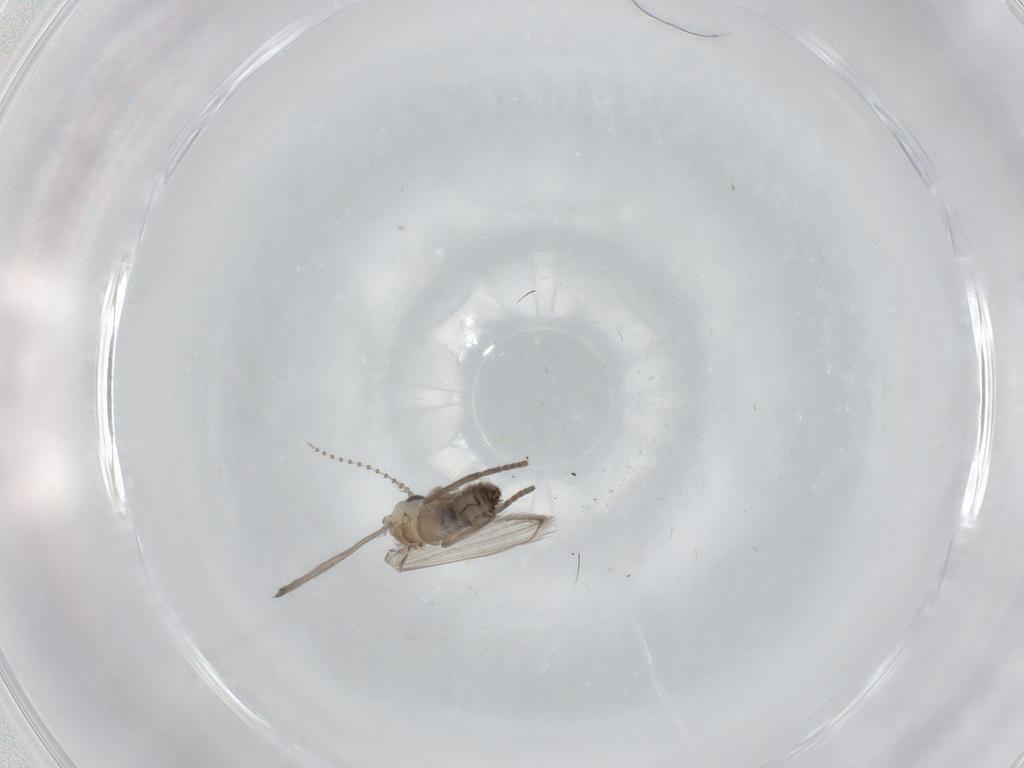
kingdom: Animalia
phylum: Arthropoda
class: Insecta
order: Diptera
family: Psychodidae
